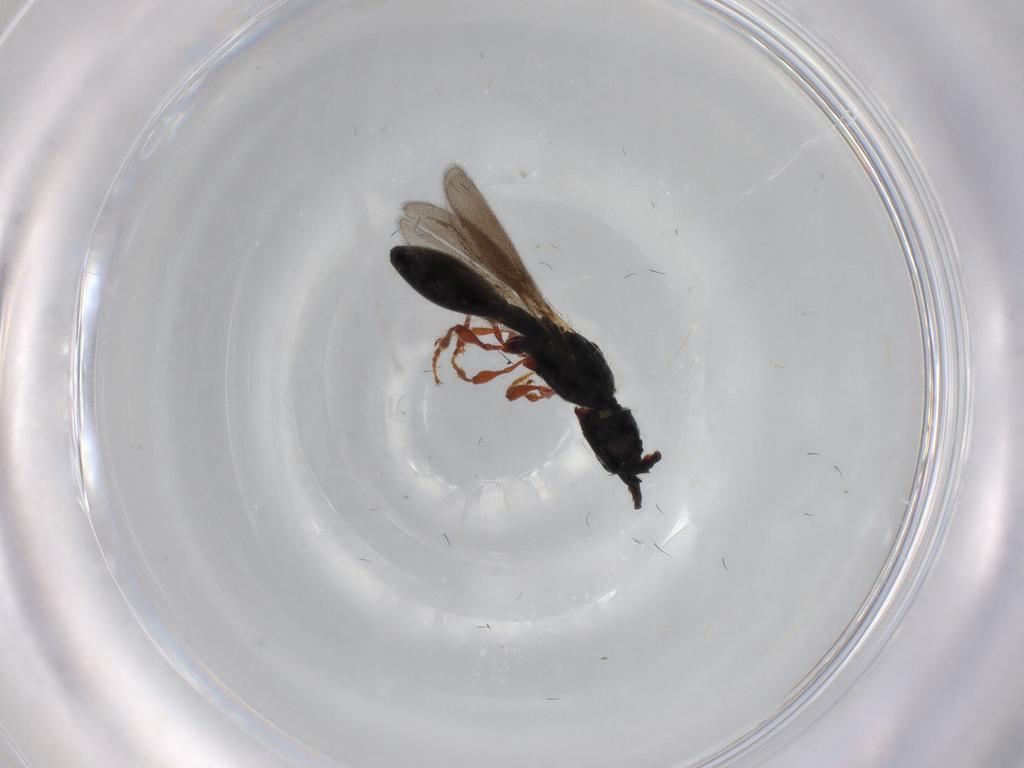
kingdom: Animalia
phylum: Arthropoda
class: Insecta
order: Hymenoptera
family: Diapriidae
